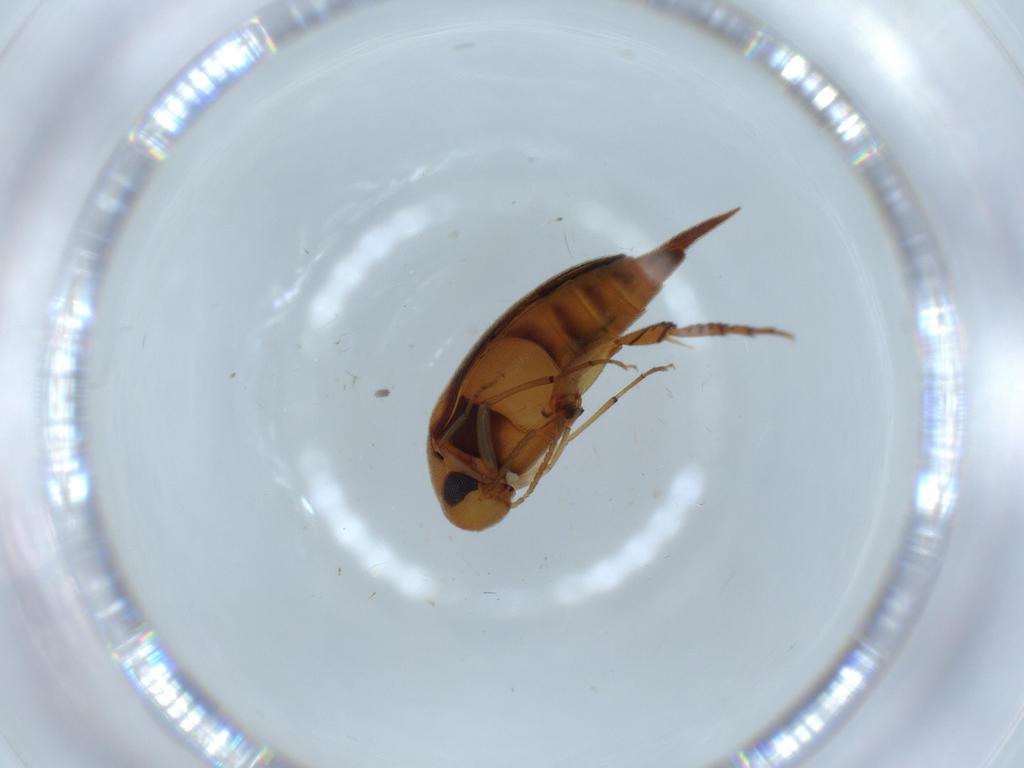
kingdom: Animalia
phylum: Arthropoda
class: Insecta
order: Coleoptera
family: Mordellidae
